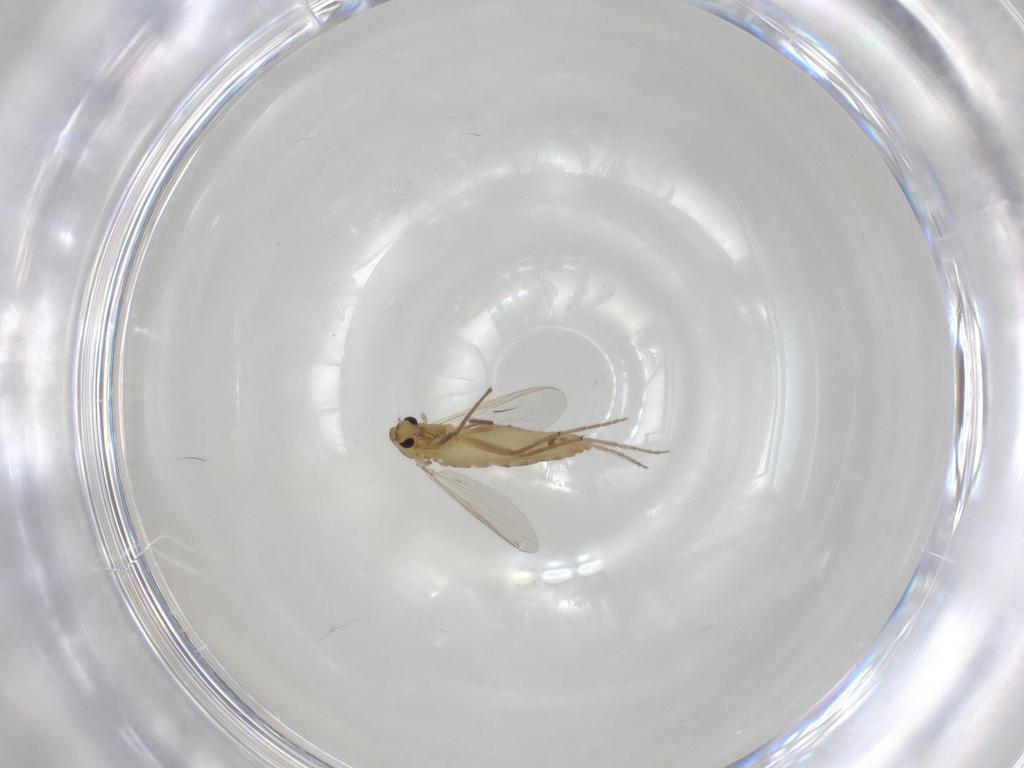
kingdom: Animalia
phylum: Arthropoda
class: Insecta
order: Diptera
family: Chironomidae
